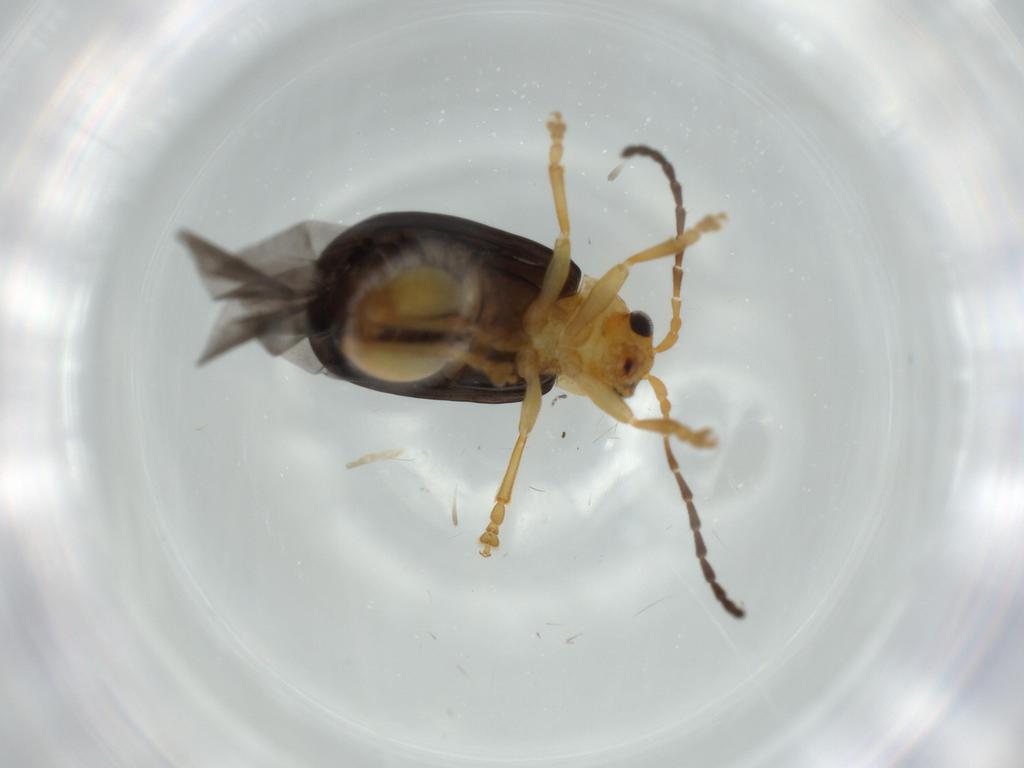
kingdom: Animalia
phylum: Arthropoda
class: Insecta
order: Coleoptera
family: Chrysomelidae
